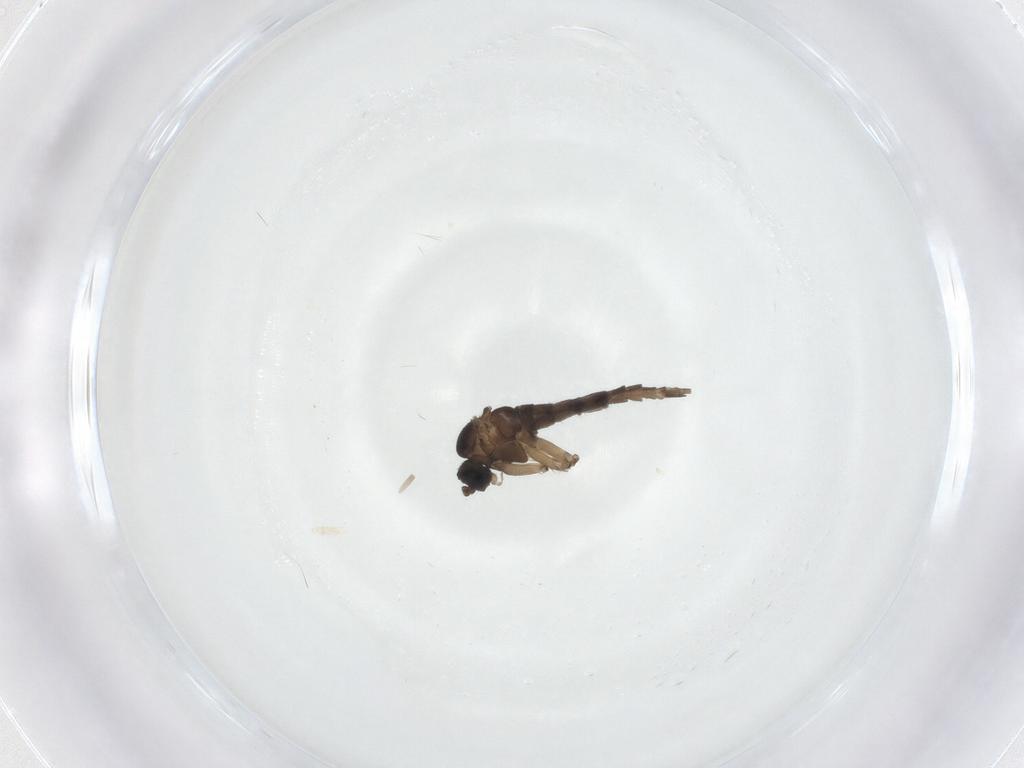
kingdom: Animalia
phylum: Arthropoda
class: Insecta
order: Diptera
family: Sciaridae
